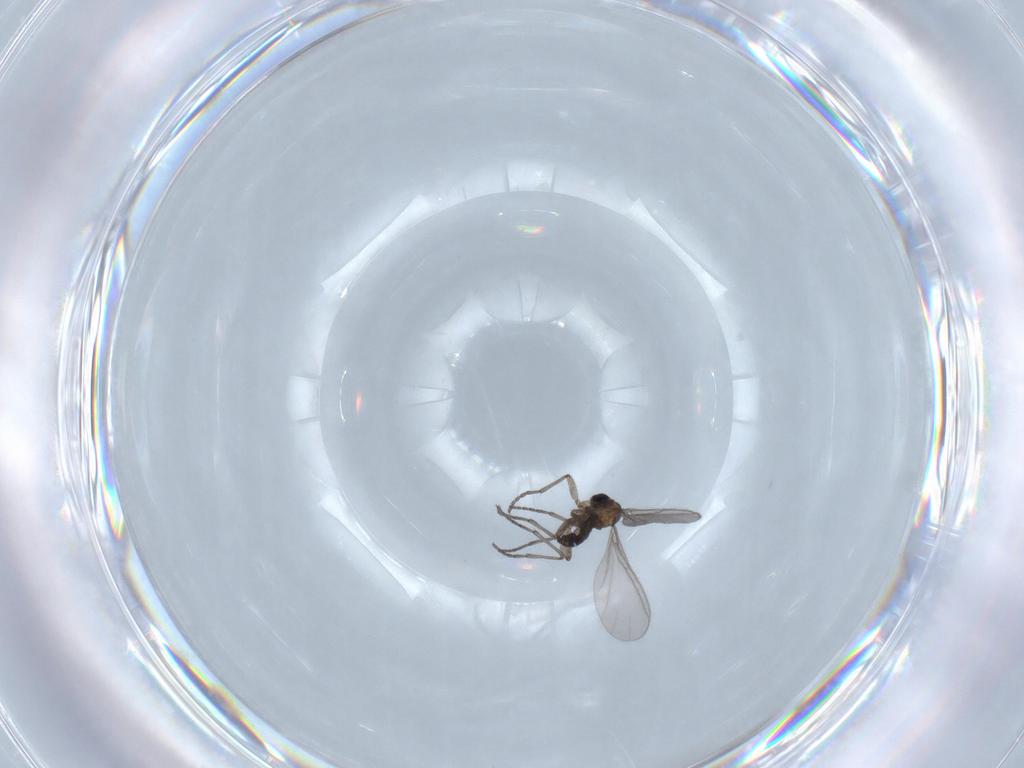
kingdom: Animalia
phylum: Arthropoda
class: Insecta
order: Diptera
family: Sciaridae
